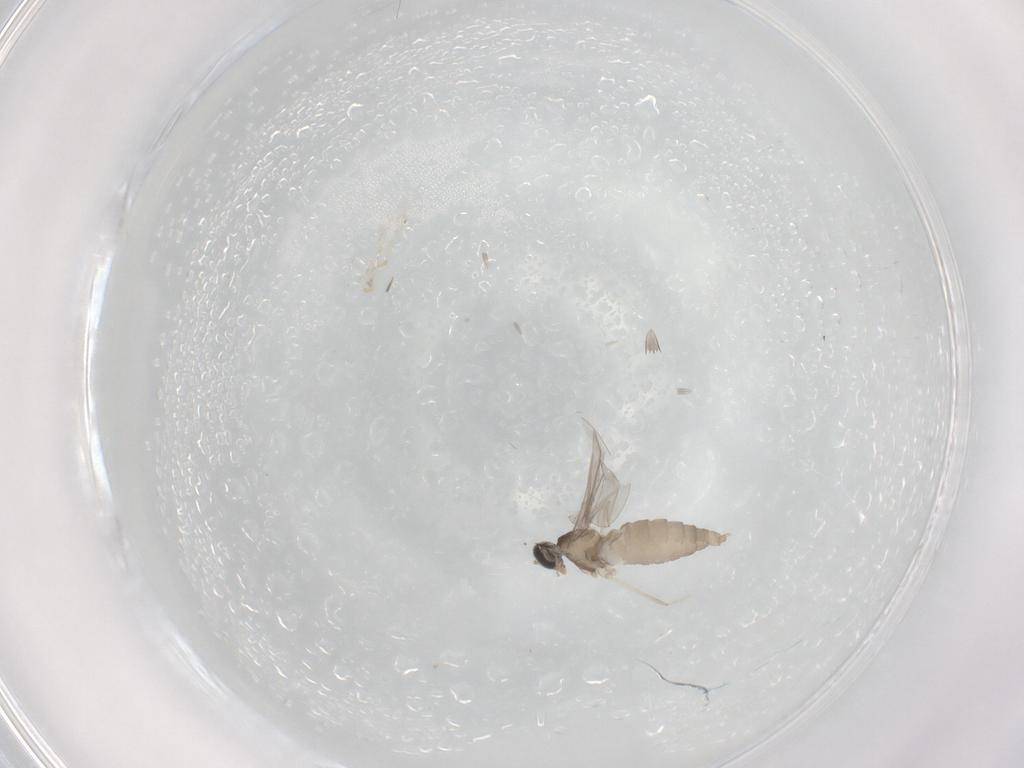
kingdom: Animalia
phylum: Arthropoda
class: Insecta
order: Diptera
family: Cecidomyiidae
